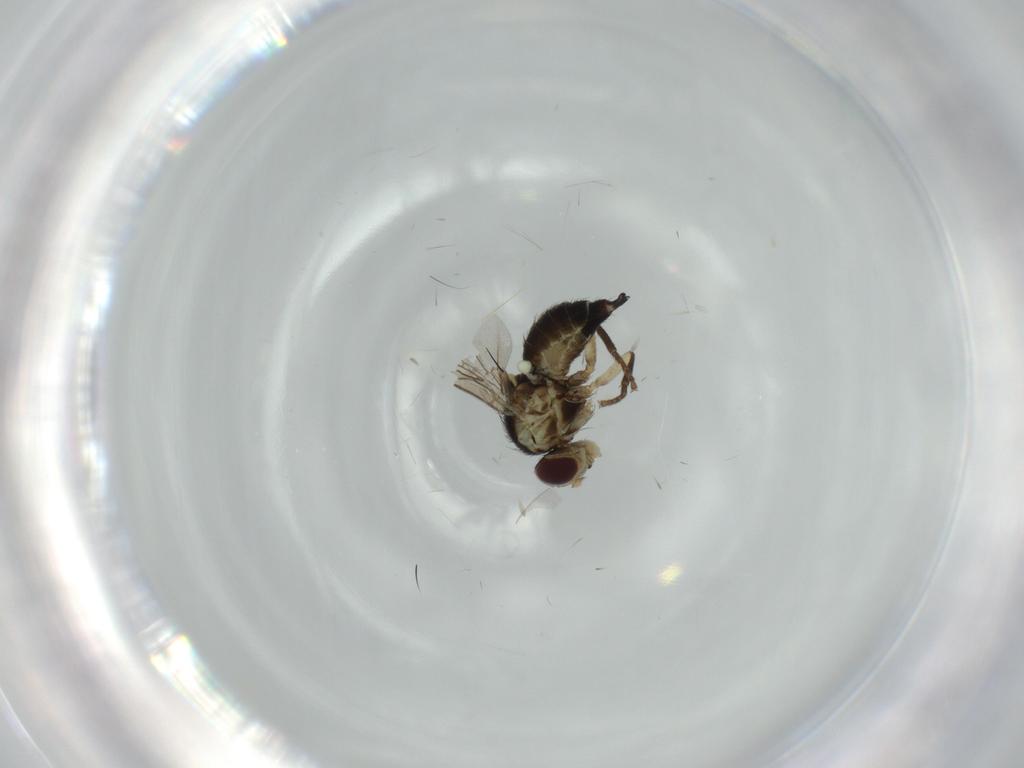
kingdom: Animalia
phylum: Arthropoda
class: Insecta
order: Diptera
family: Agromyzidae
